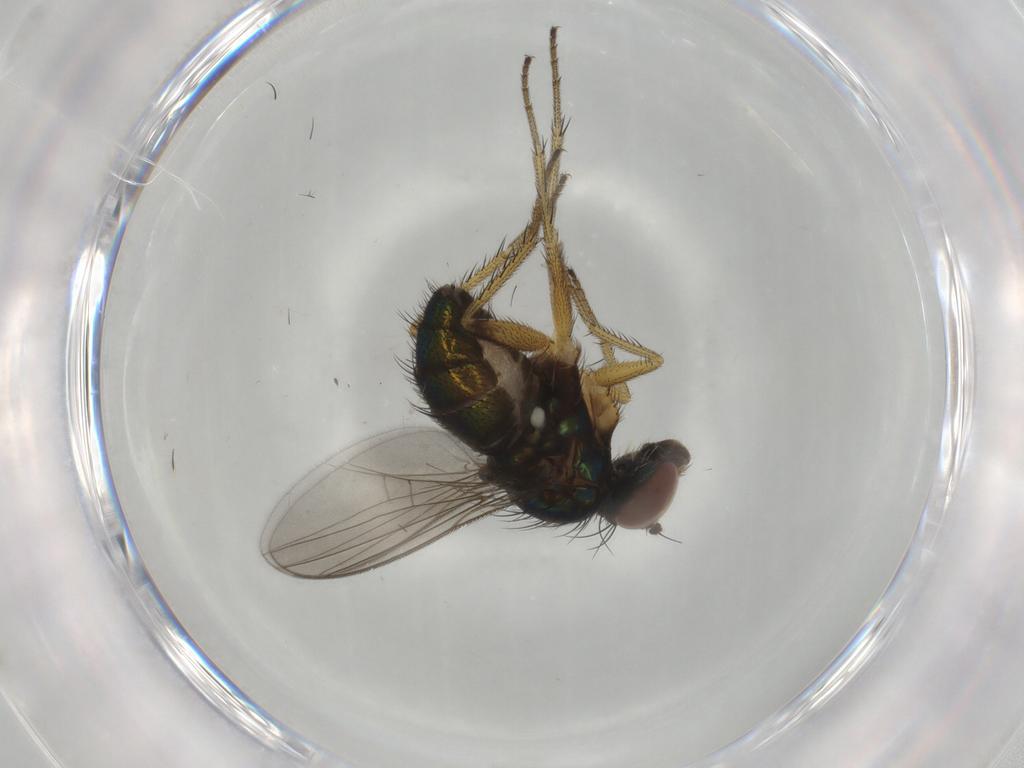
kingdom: Animalia
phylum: Arthropoda
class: Insecta
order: Diptera
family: Dolichopodidae
